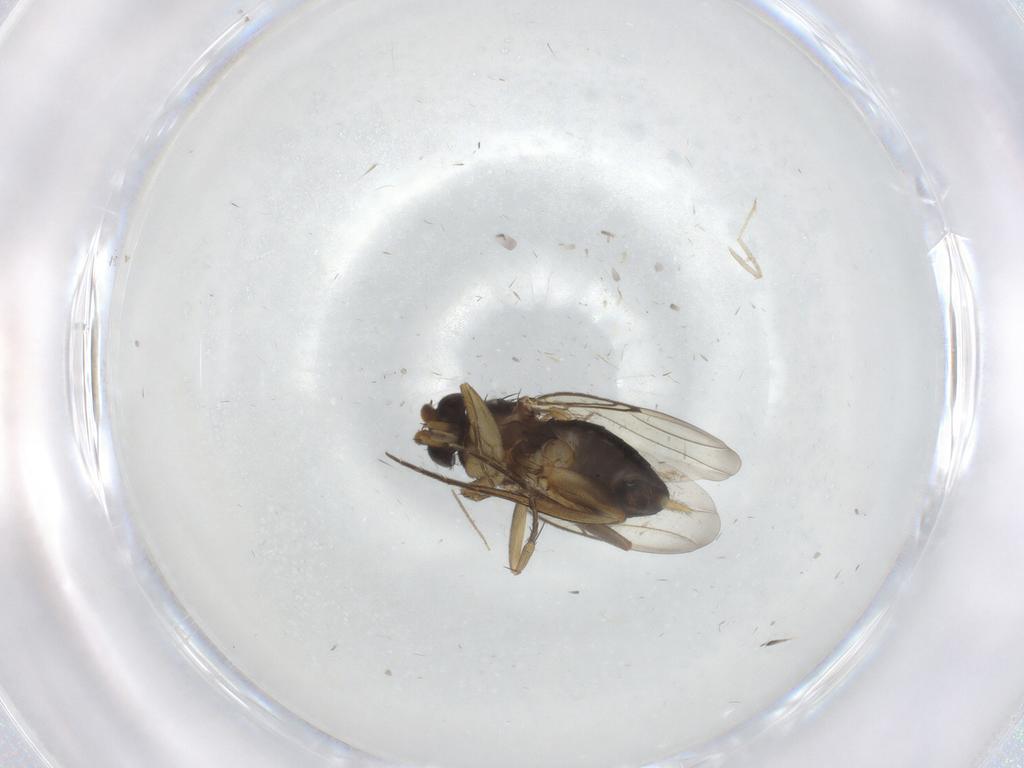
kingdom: Animalia
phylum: Arthropoda
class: Insecta
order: Diptera
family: Phoridae
